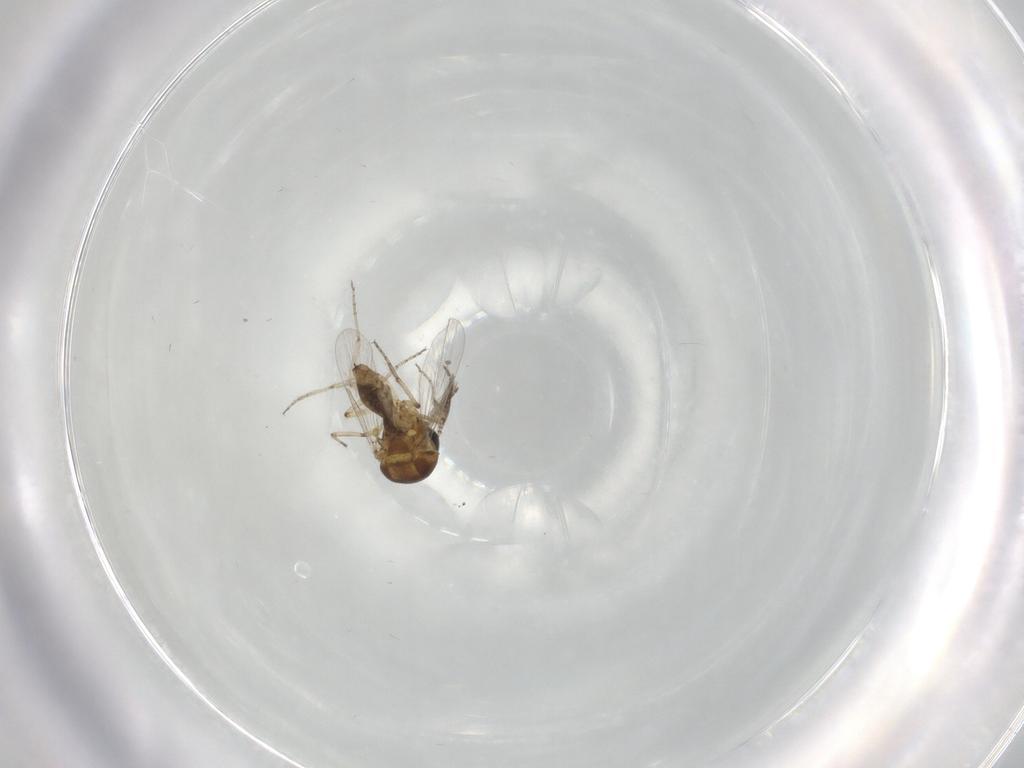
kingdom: Animalia
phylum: Arthropoda
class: Insecta
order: Diptera
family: Ceratopogonidae
